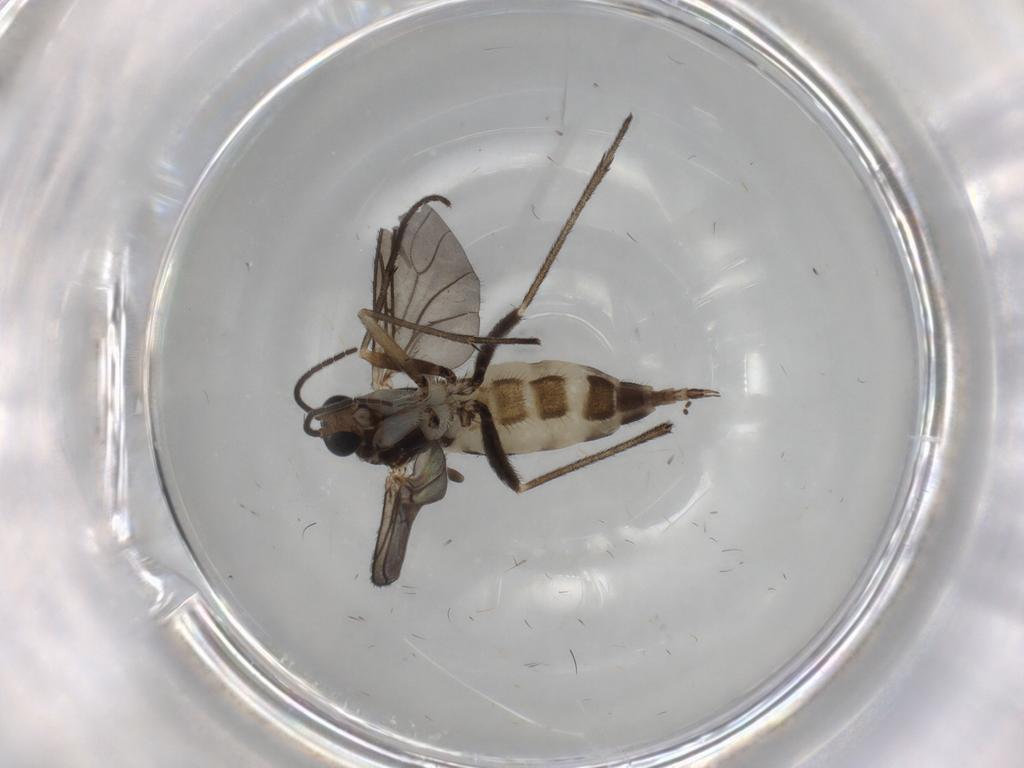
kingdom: Animalia
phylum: Arthropoda
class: Insecta
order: Diptera
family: Sciaridae
